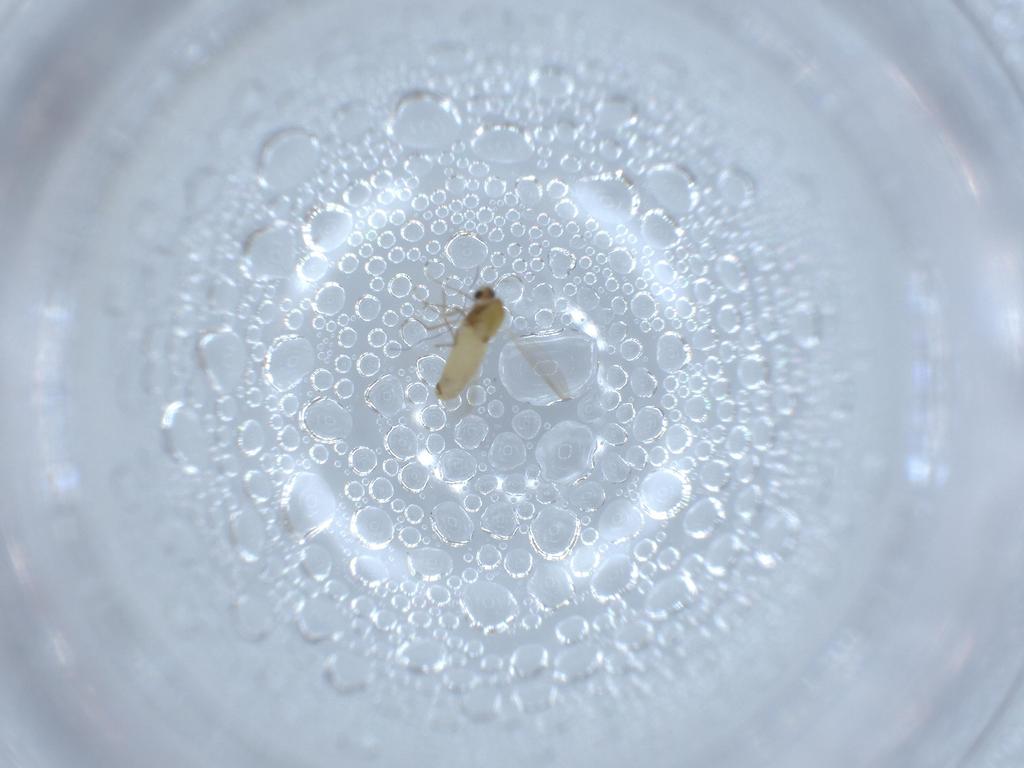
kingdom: Animalia
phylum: Arthropoda
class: Insecta
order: Diptera
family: Chironomidae
